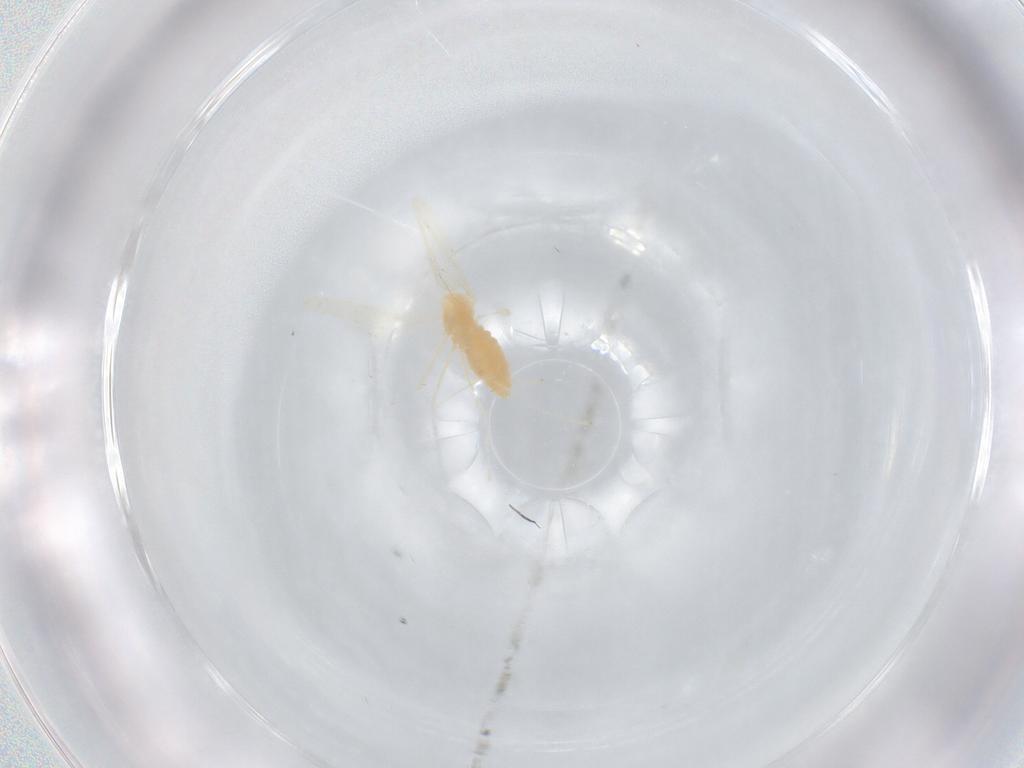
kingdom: Animalia
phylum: Arthropoda
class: Insecta
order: Diptera
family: Cecidomyiidae
